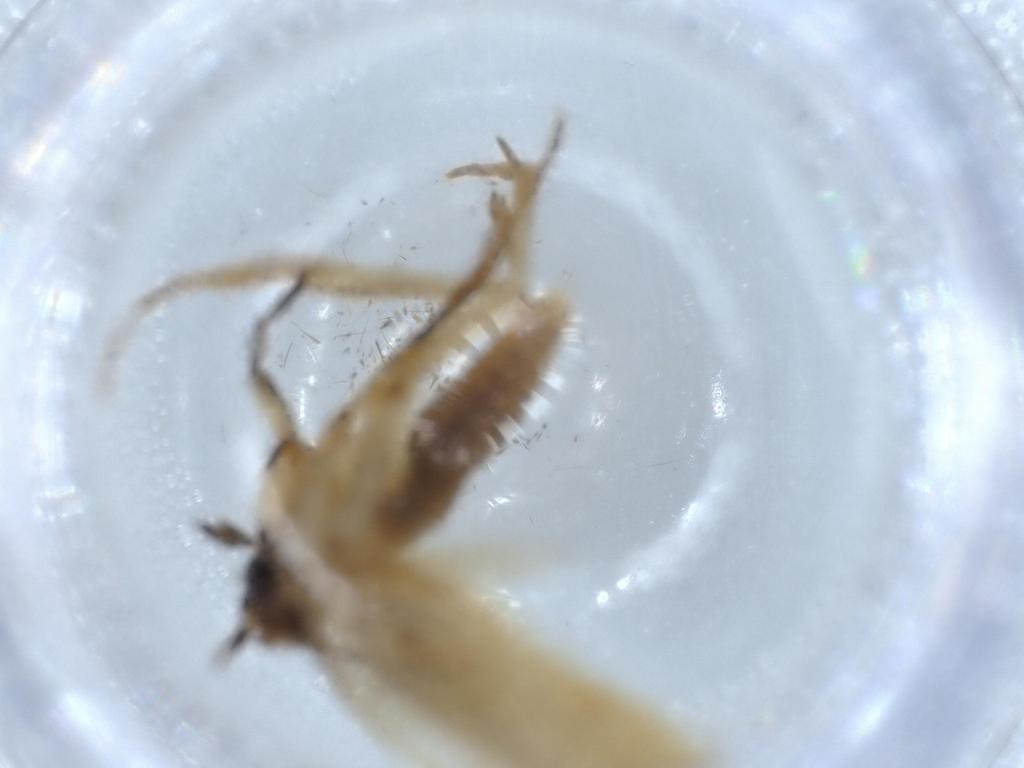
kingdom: Animalia
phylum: Arthropoda
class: Insecta
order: Lepidoptera
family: Tineidae
